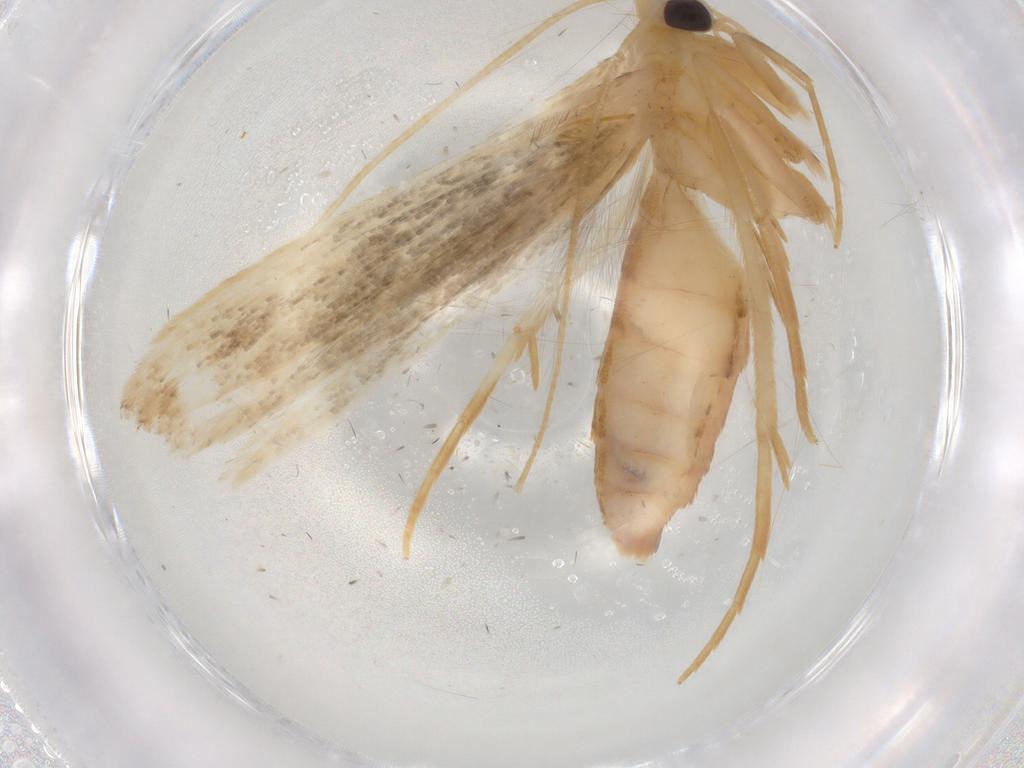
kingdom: Animalia
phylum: Arthropoda
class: Insecta
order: Lepidoptera
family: Coleophoridae
